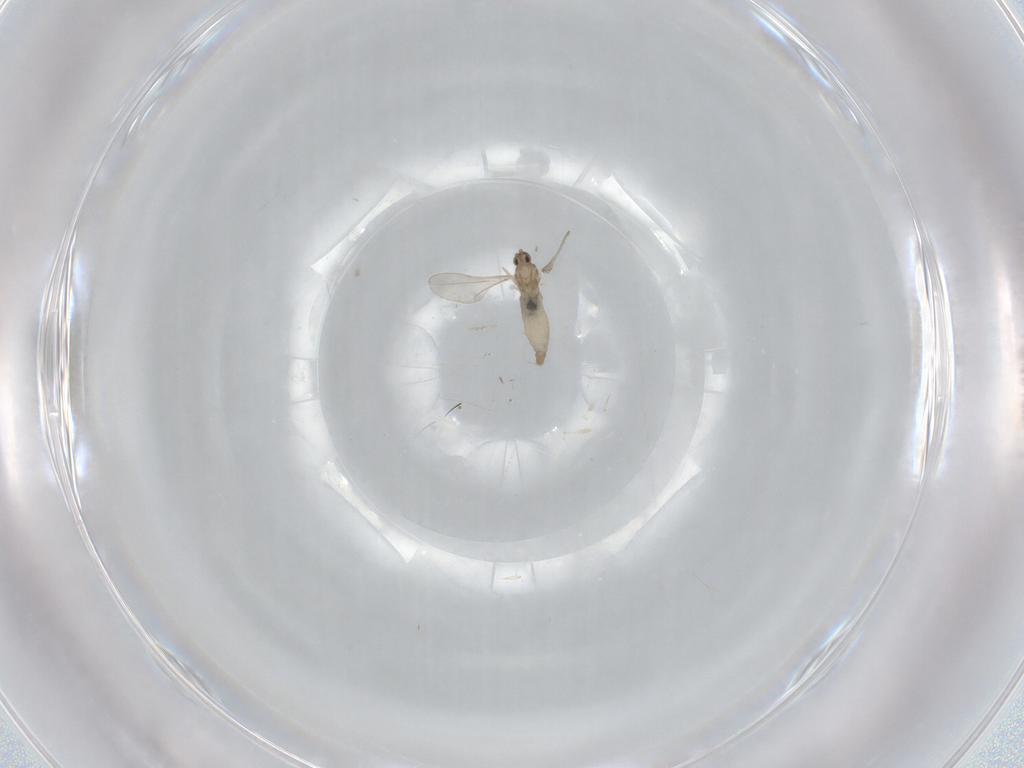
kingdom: Animalia
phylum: Arthropoda
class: Insecta
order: Diptera
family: Cecidomyiidae
